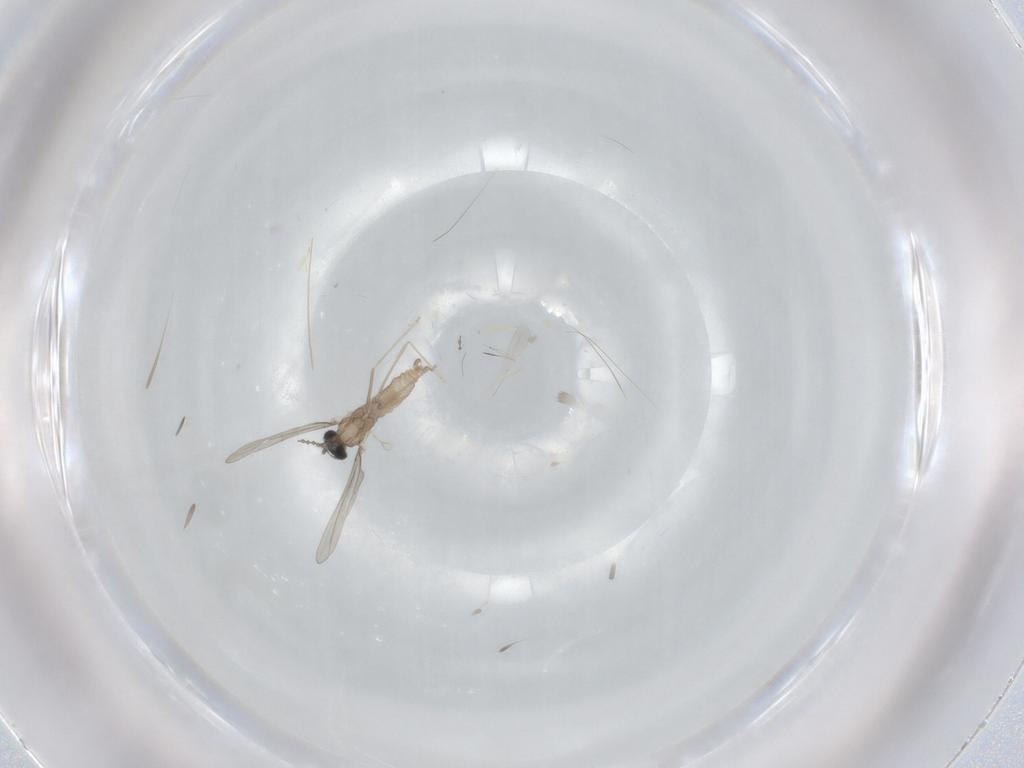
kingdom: Animalia
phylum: Arthropoda
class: Insecta
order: Diptera
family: Cecidomyiidae
